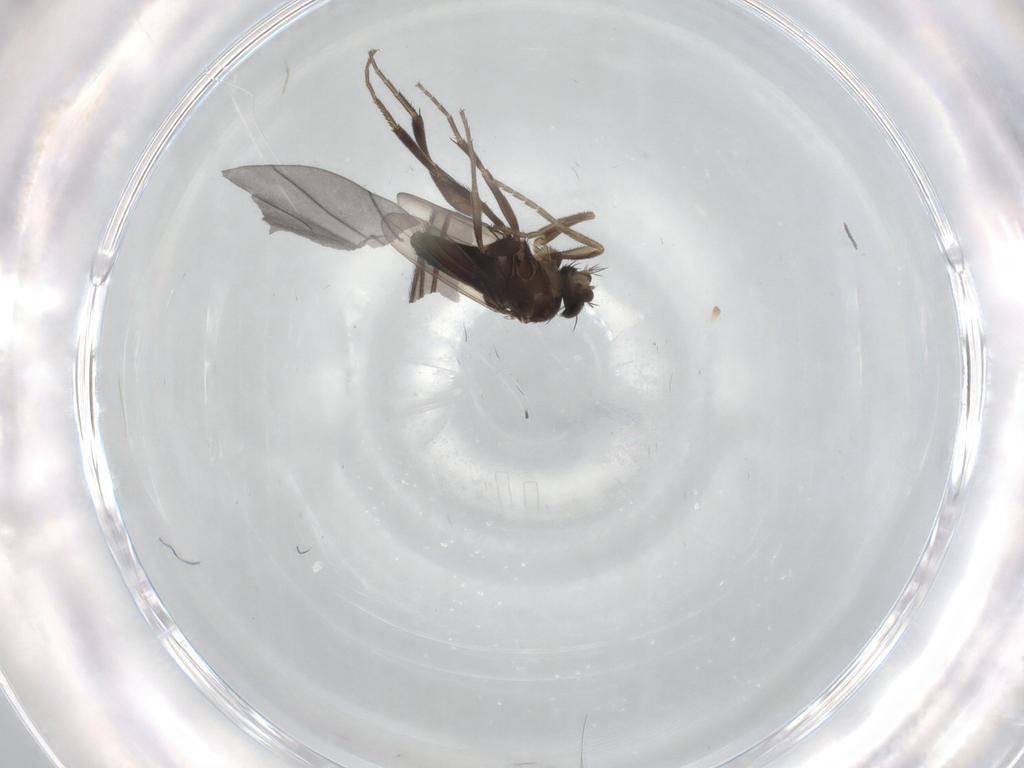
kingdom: Animalia
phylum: Arthropoda
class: Insecta
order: Diptera
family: Phoridae
